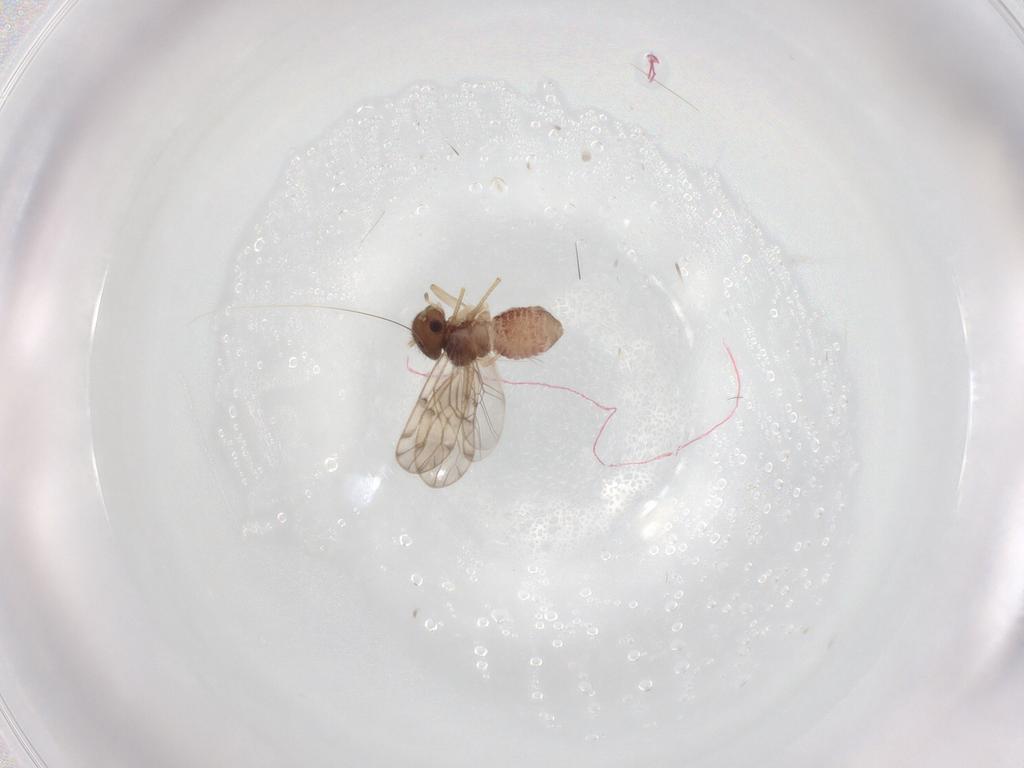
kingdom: Animalia
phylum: Arthropoda
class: Insecta
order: Psocodea
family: Peripsocidae
